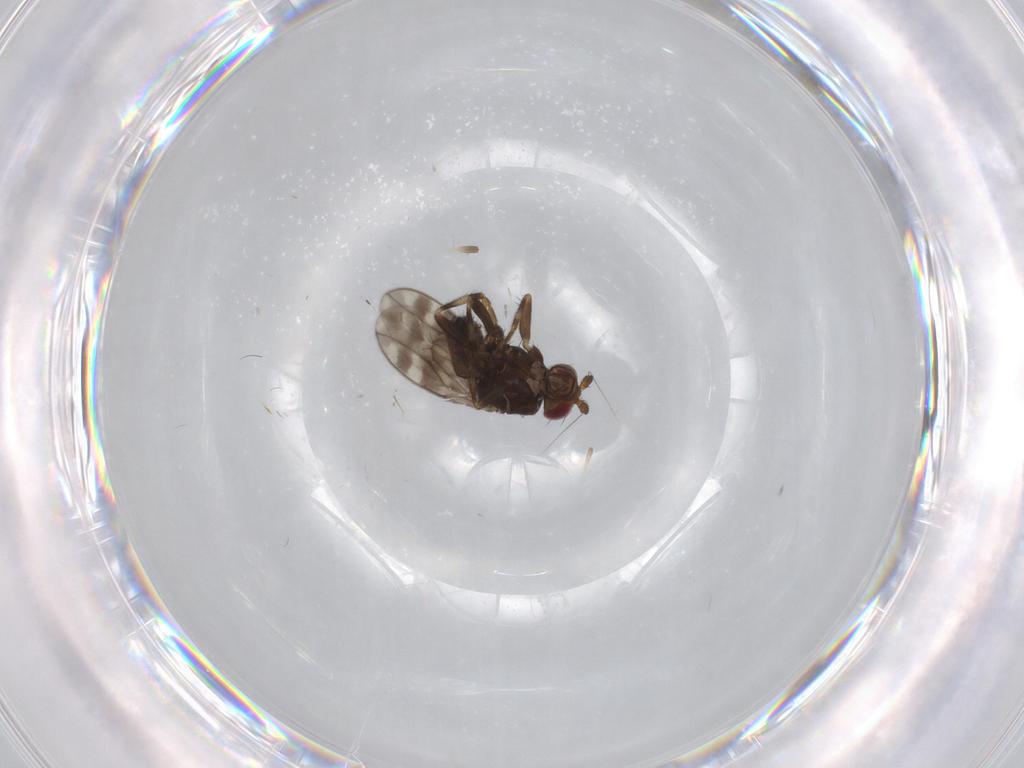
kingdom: Animalia
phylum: Arthropoda
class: Insecta
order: Diptera
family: Sphaeroceridae
